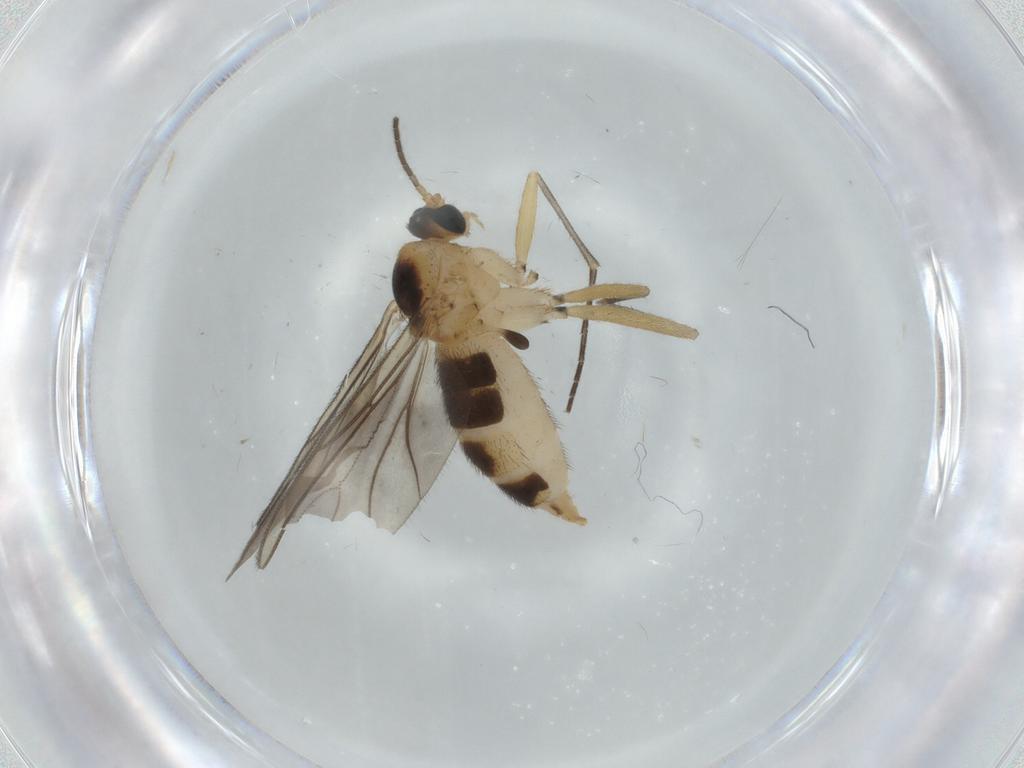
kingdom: Animalia
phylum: Arthropoda
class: Insecta
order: Diptera
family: Sciaridae
